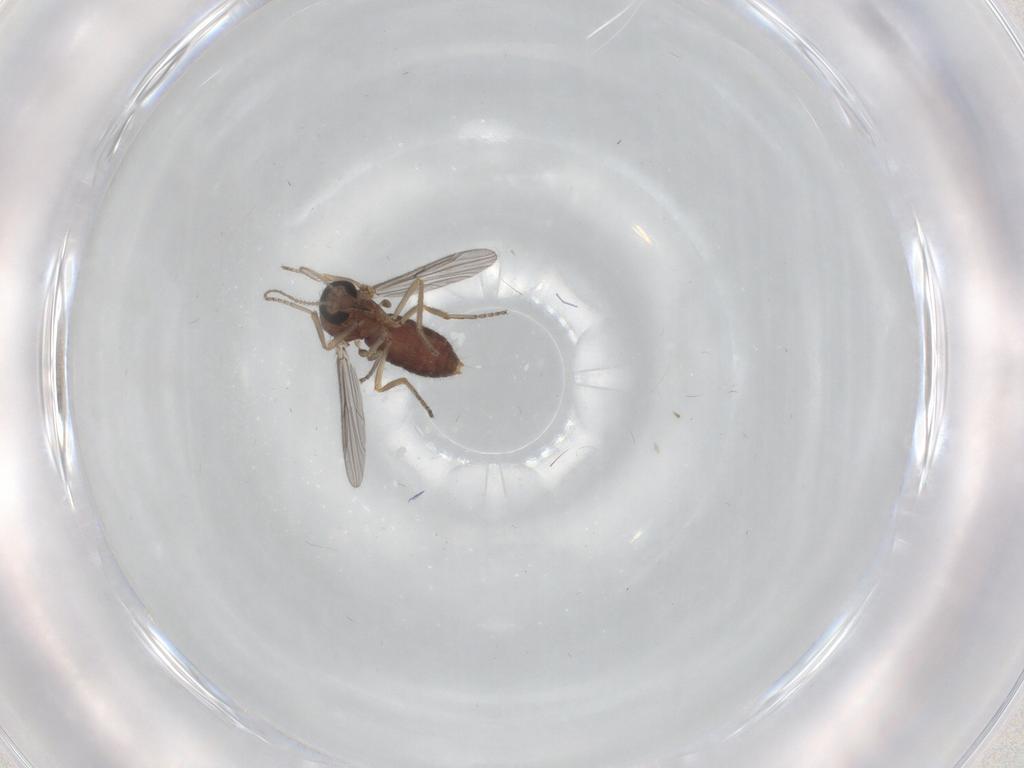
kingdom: Animalia
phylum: Arthropoda
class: Insecta
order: Diptera
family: Ceratopogonidae
